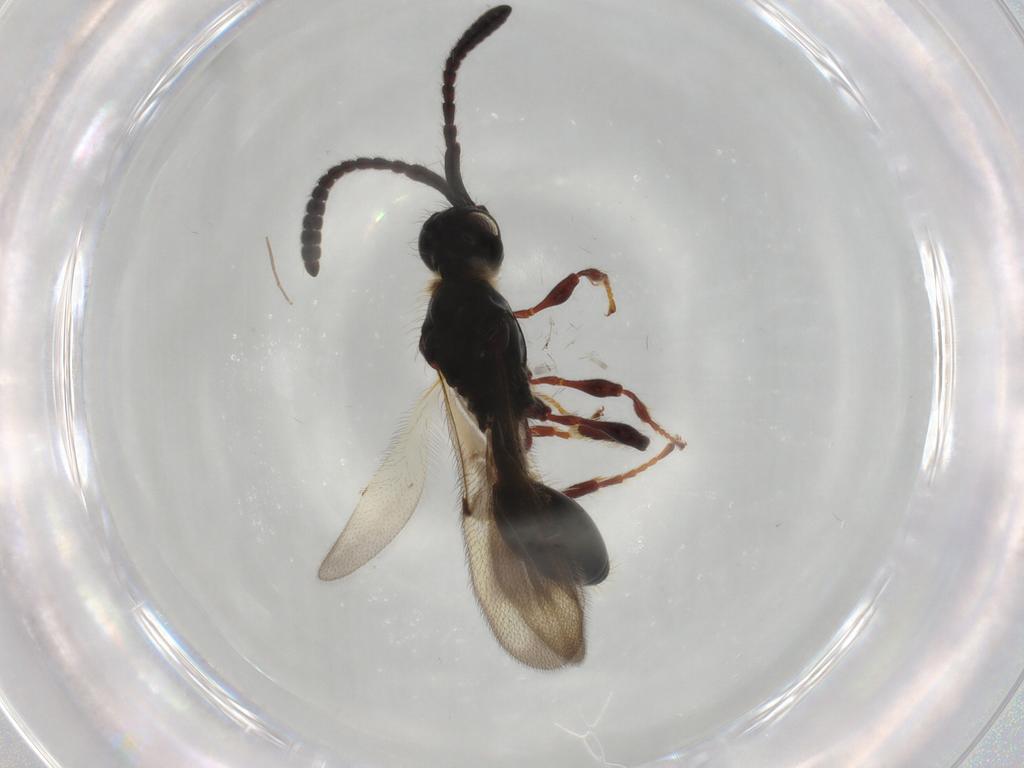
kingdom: Animalia
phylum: Arthropoda
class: Insecta
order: Hymenoptera
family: Diapriidae
